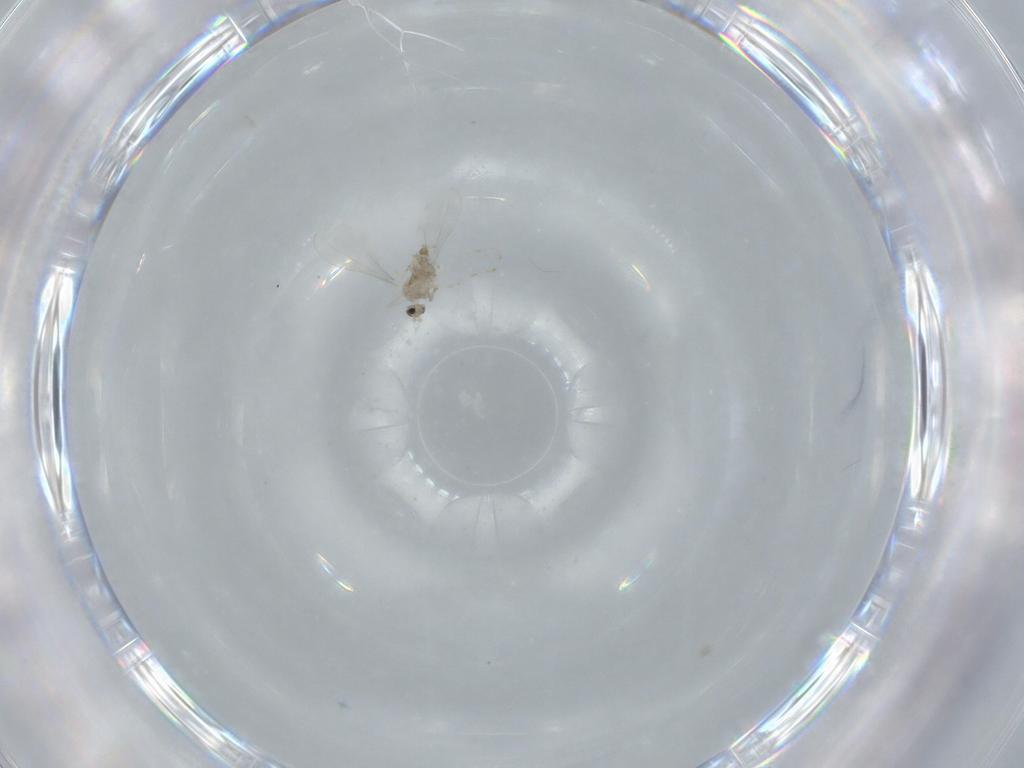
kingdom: Animalia
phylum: Arthropoda
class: Insecta
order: Diptera
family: Cecidomyiidae
